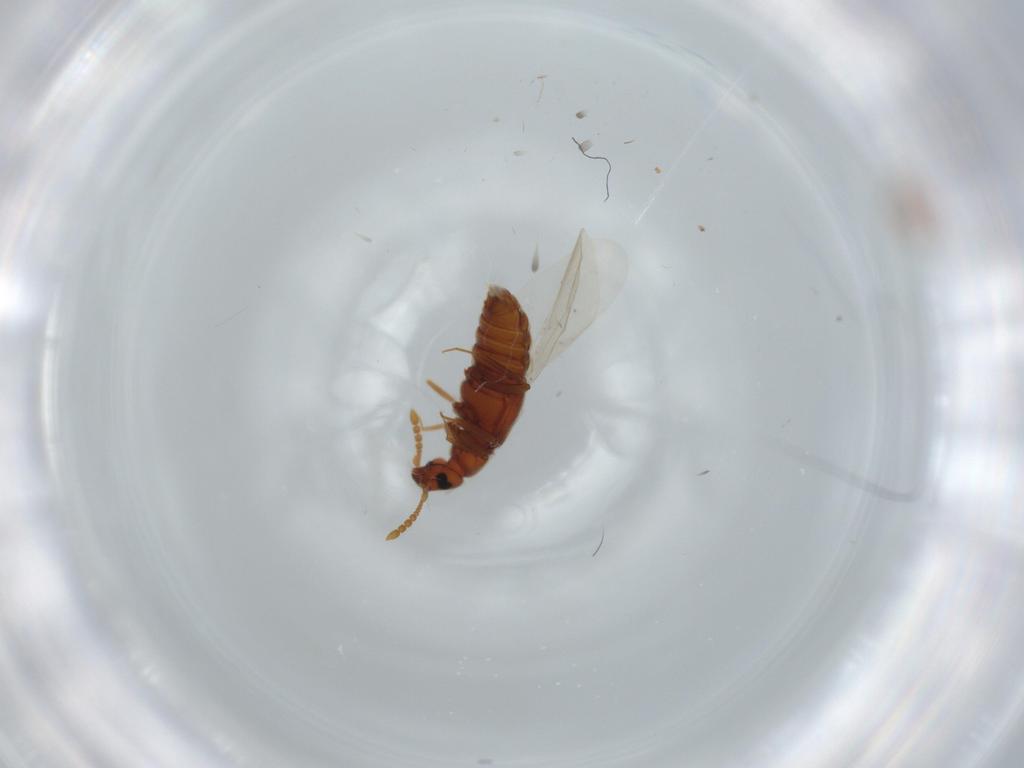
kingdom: Animalia
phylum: Arthropoda
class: Insecta
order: Coleoptera
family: Staphylinidae
